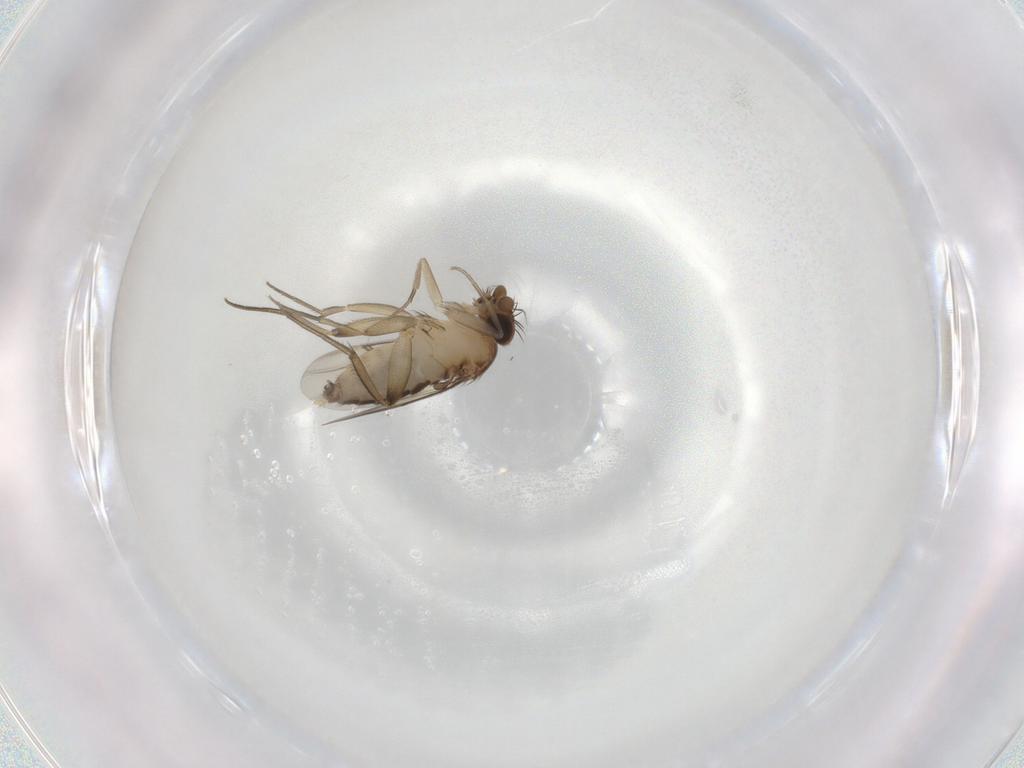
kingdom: Animalia
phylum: Arthropoda
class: Insecta
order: Diptera
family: Phoridae
